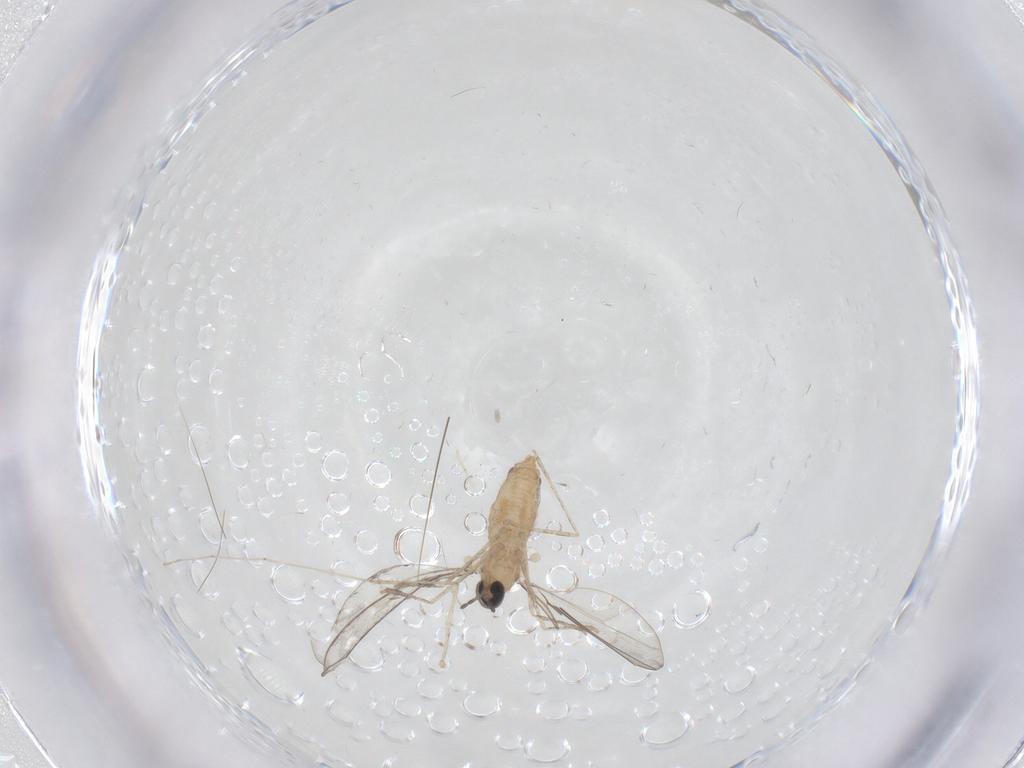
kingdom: Animalia
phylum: Arthropoda
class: Insecta
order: Diptera
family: Cecidomyiidae
